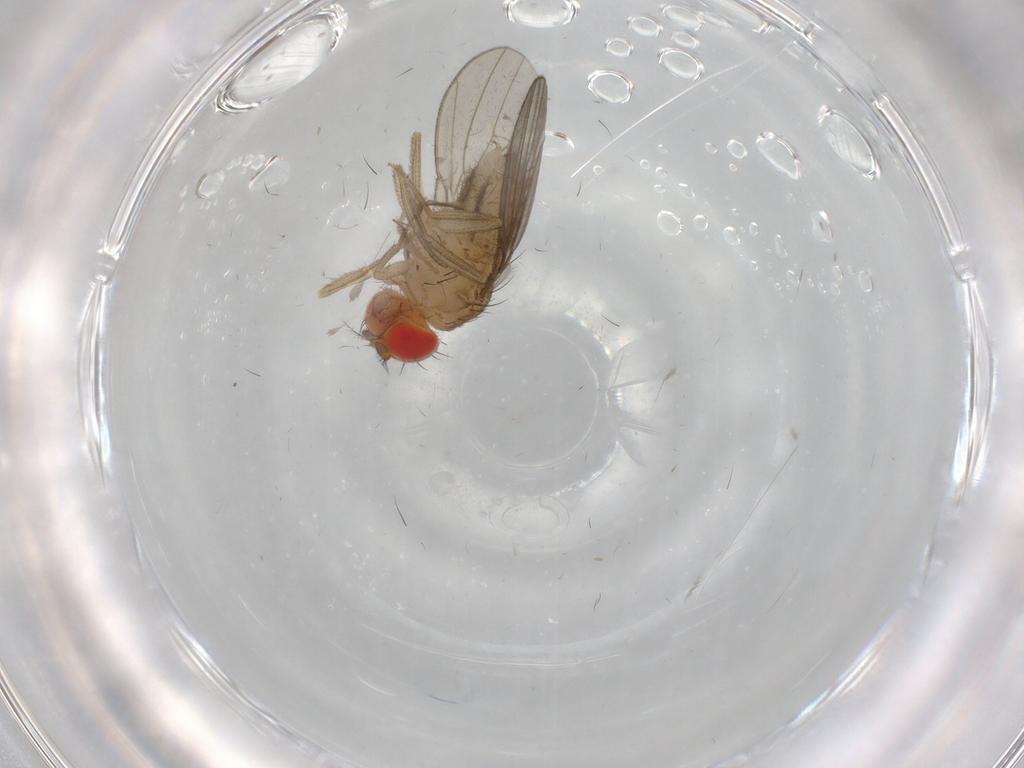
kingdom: Animalia
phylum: Arthropoda
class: Insecta
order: Diptera
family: Chironomidae
